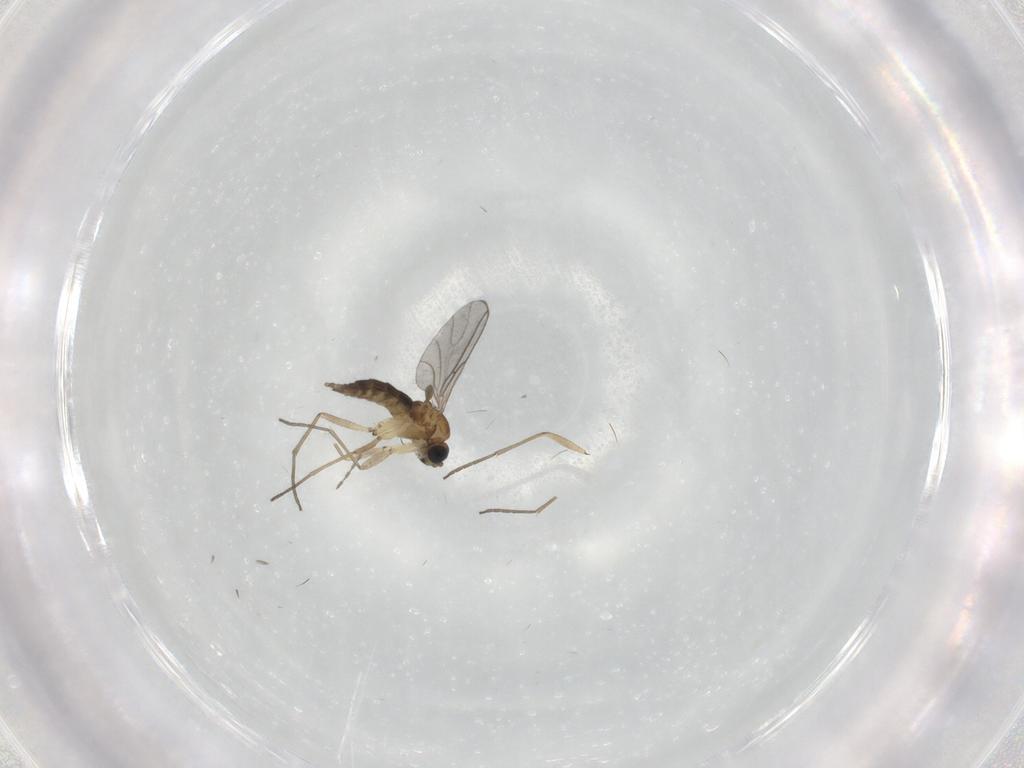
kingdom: Animalia
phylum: Arthropoda
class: Insecta
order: Diptera
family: Sciaridae
